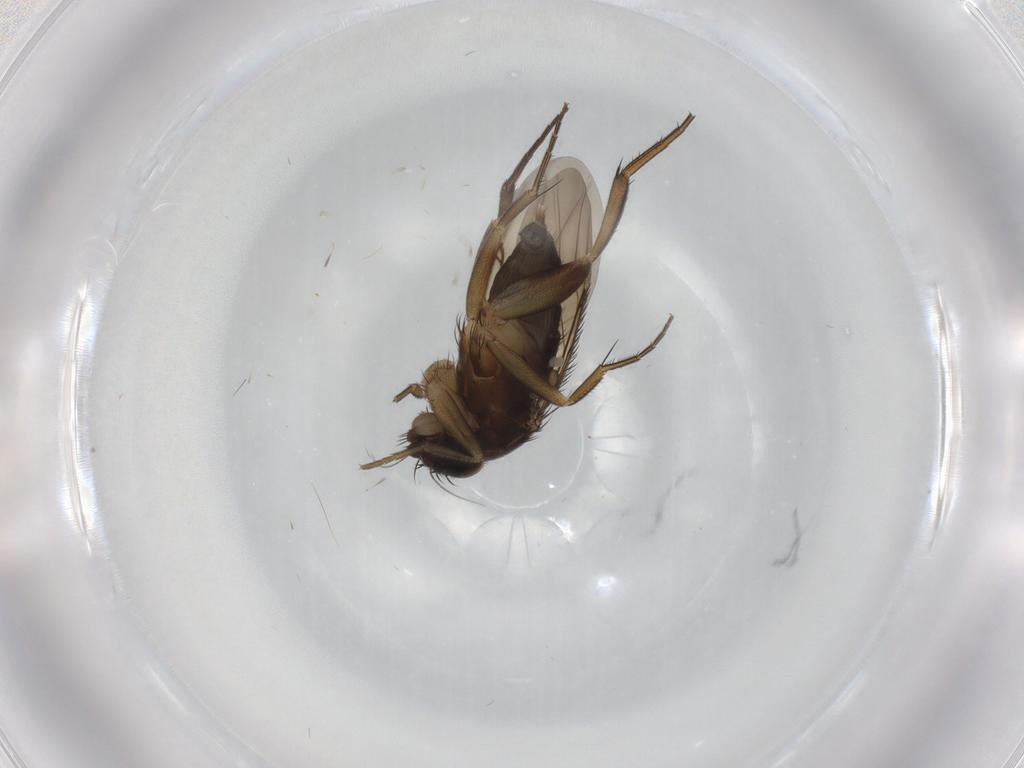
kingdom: Animalia
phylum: Arthropoda
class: Insecta
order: Diptera
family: Phoridae
